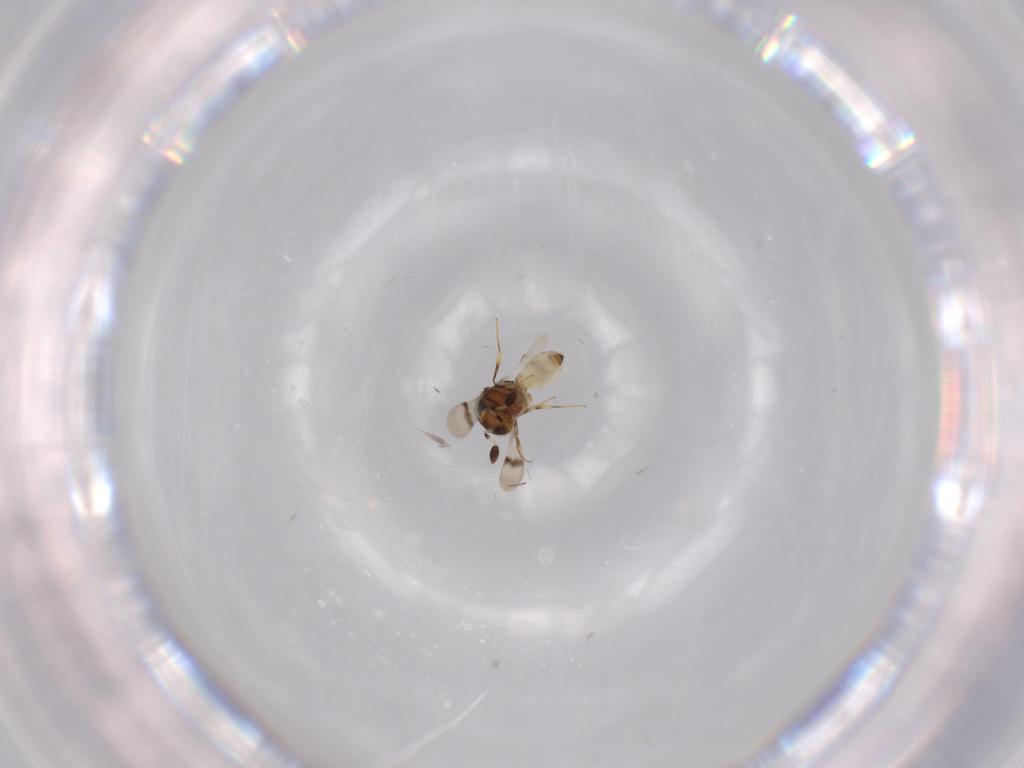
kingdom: Animalia
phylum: Arthropoda
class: Arachnida
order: Araneae
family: Pholcidae
